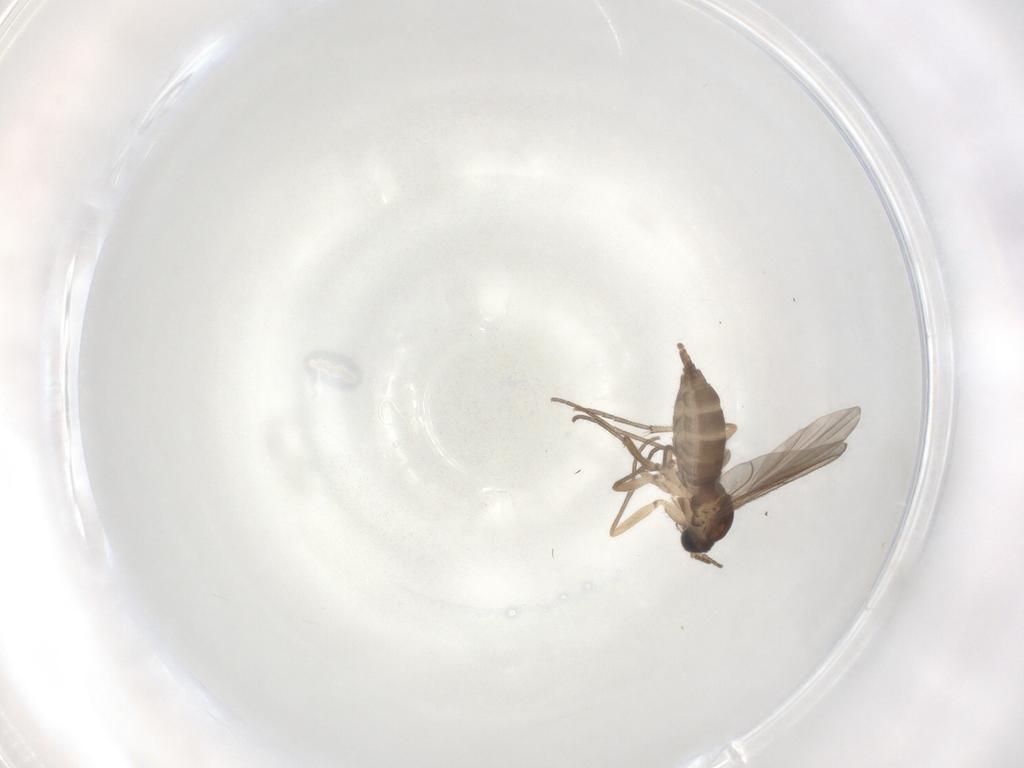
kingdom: Animalia
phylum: Arthropoda
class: Insecta
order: Diptera
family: Sciaridae
